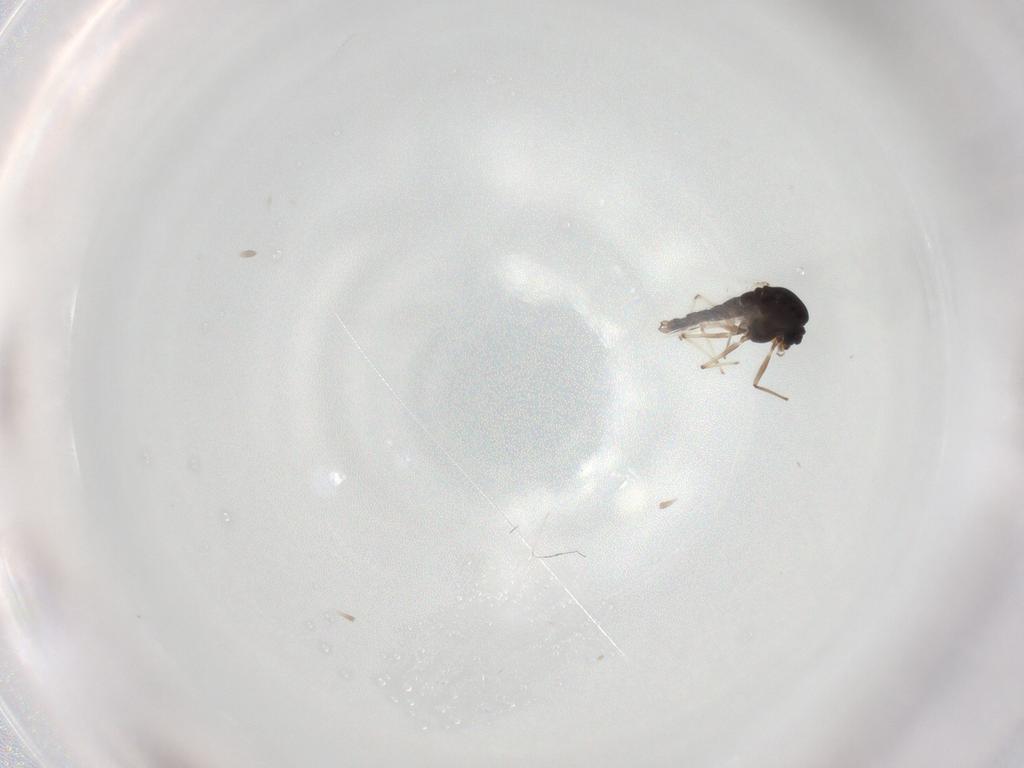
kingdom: Animalia
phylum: Arthropoda
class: Insecta
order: Diptera
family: Chironomidae
